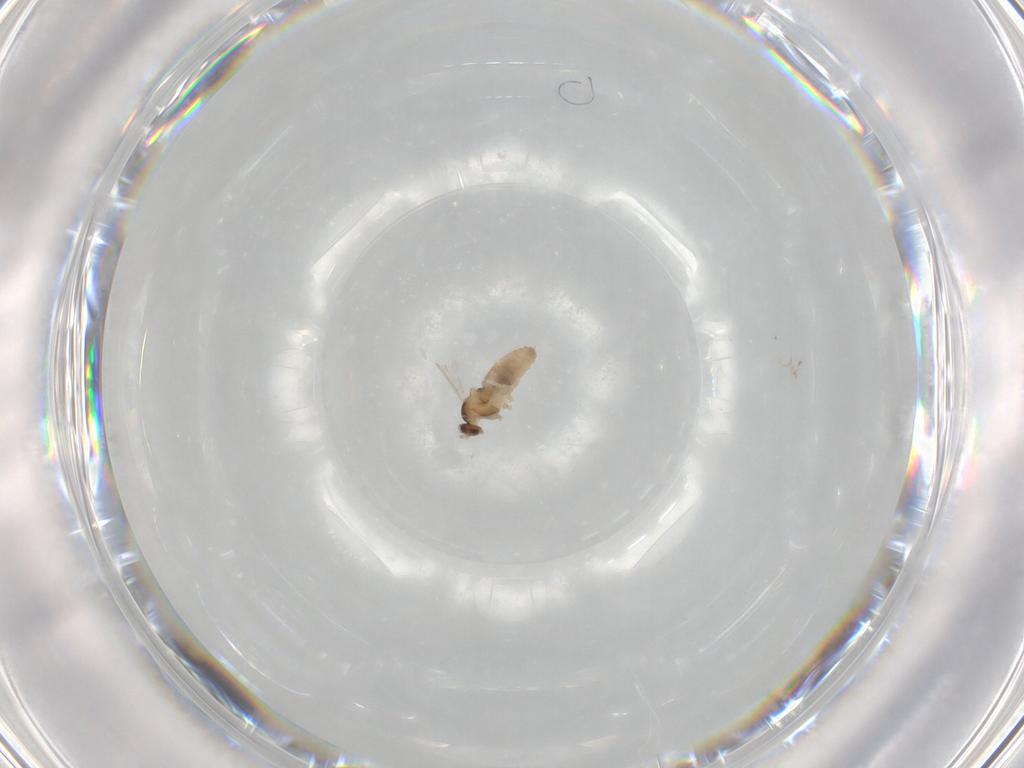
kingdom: Animalia
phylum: Arthropoda
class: Insecta
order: Diptera
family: Cecidomyiidae
